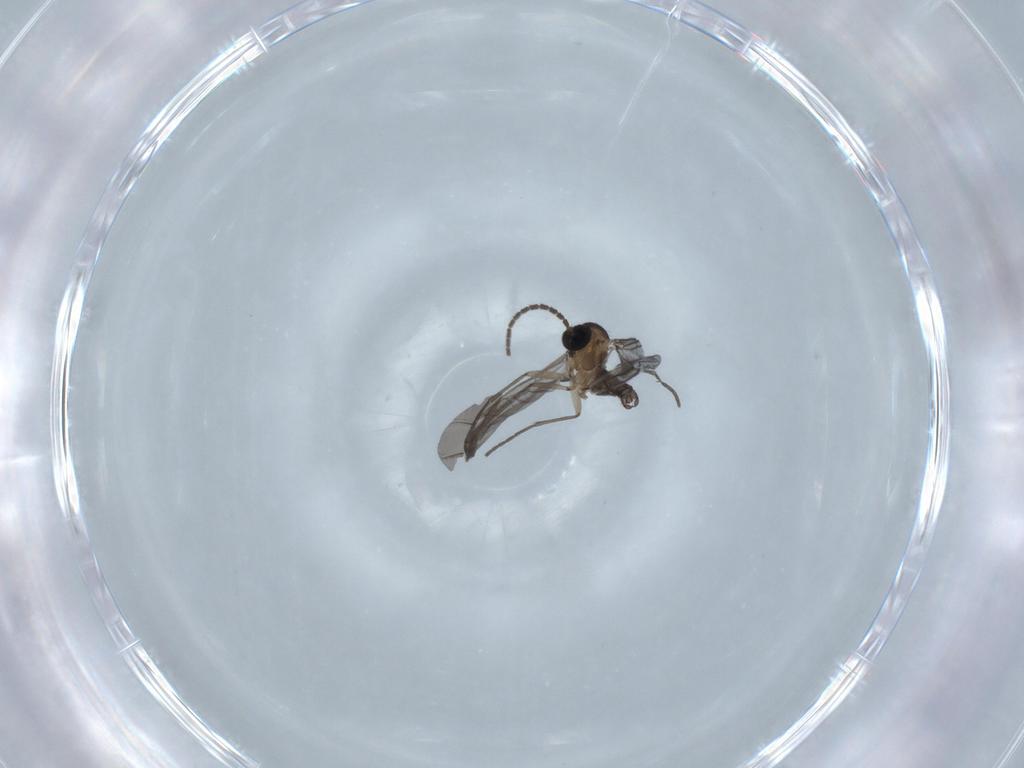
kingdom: Animalia
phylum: Arthropoda
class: Insecta
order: Diptera
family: Sciaridae
